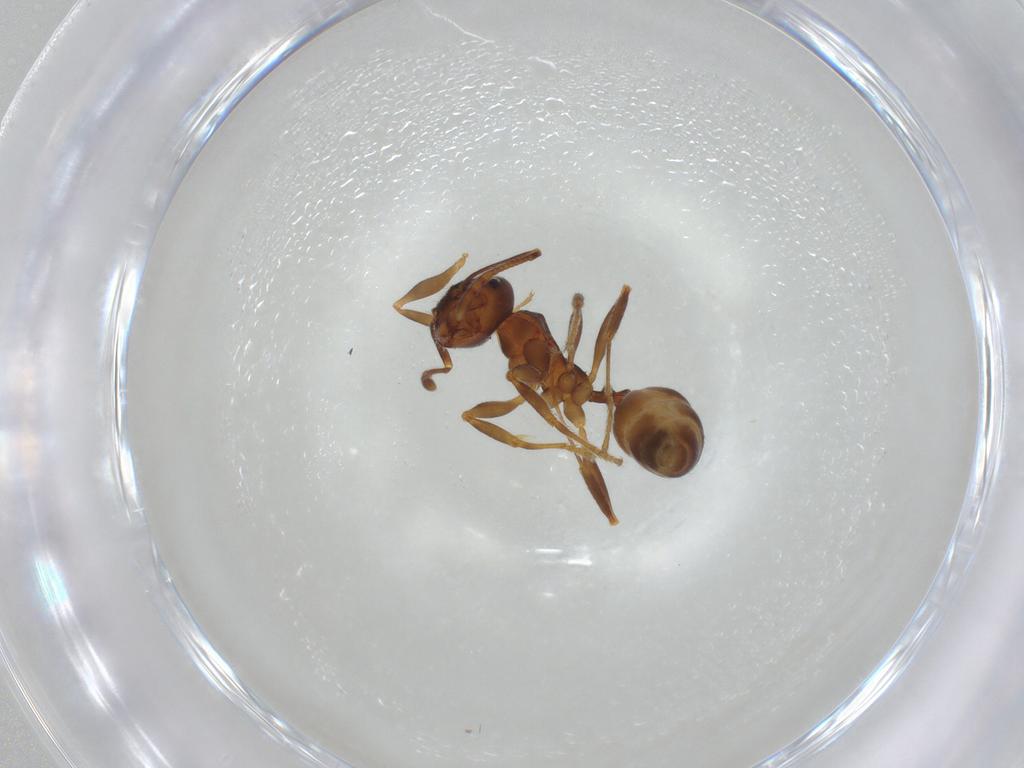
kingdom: Animalia
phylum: Arthropoda
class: Insecta
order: Hymenoptera
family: Formicidae
